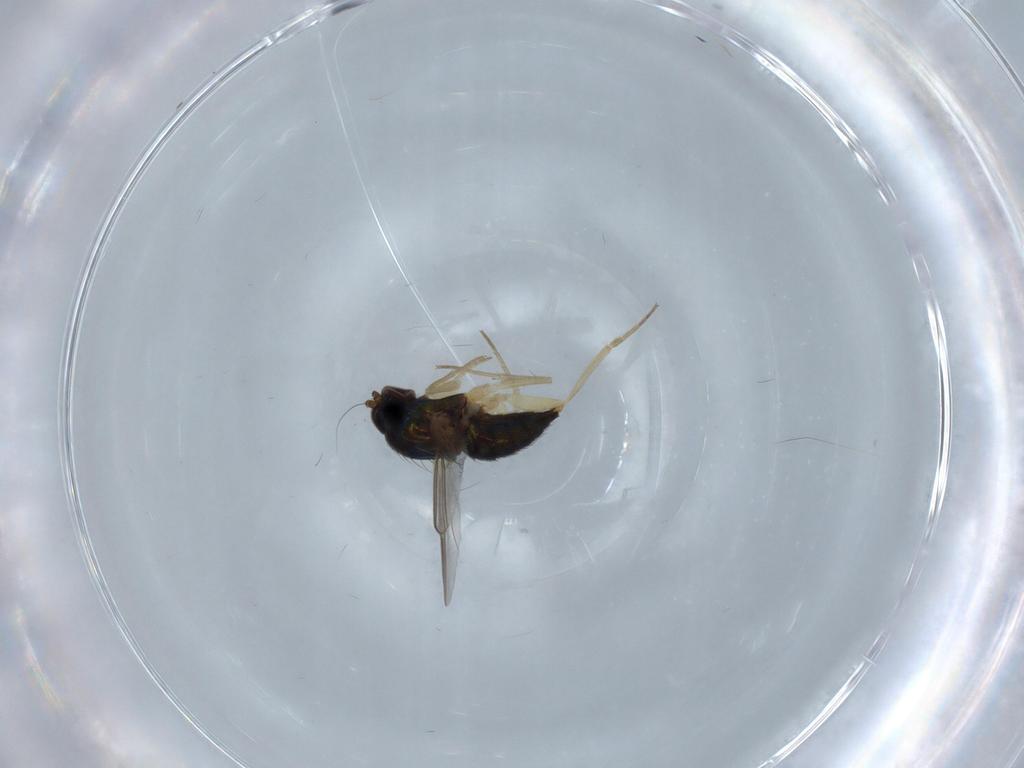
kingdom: Animalia
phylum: Arthropoda
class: Insecta
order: Diptera
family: Dolichopodidae
